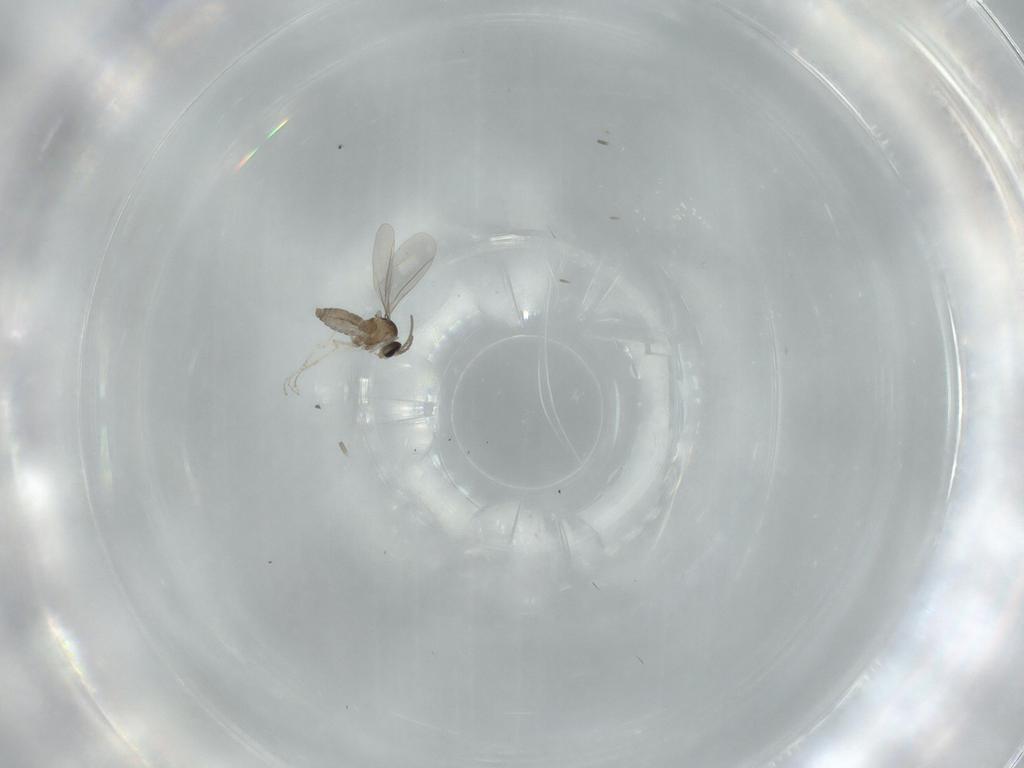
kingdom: Animalia
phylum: Arthropoda
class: Insecta
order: Diptera
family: Cecidomyiidae
